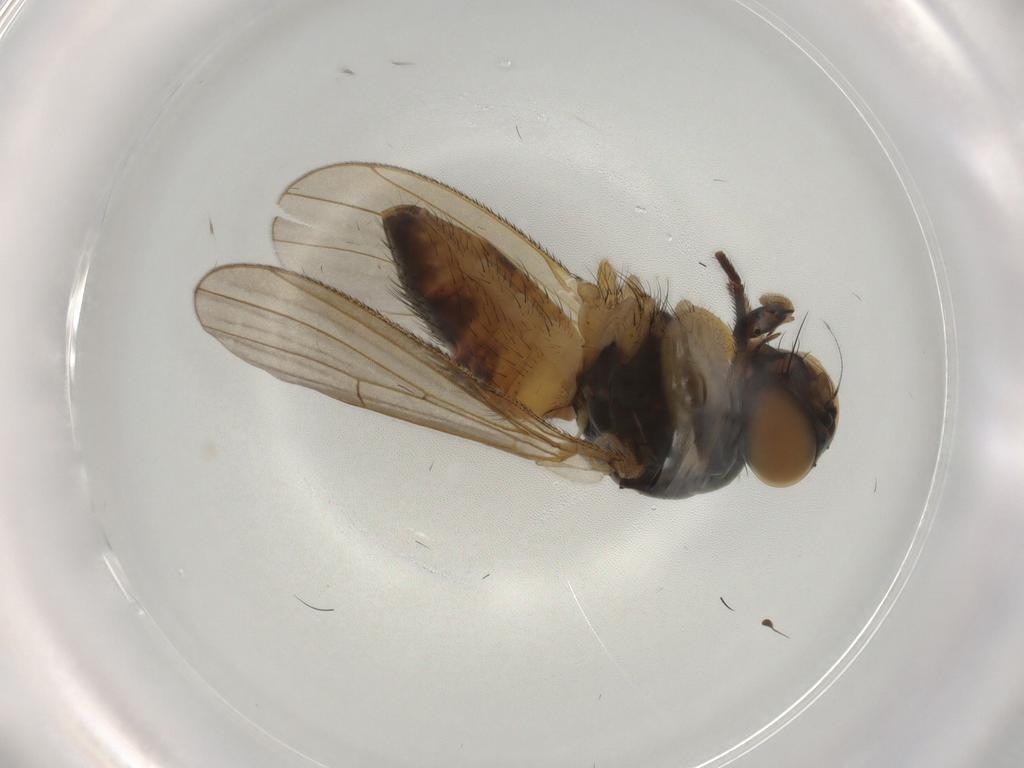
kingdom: Animalia
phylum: Arthropoda
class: Insecta
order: Diptera
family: Muscidae
